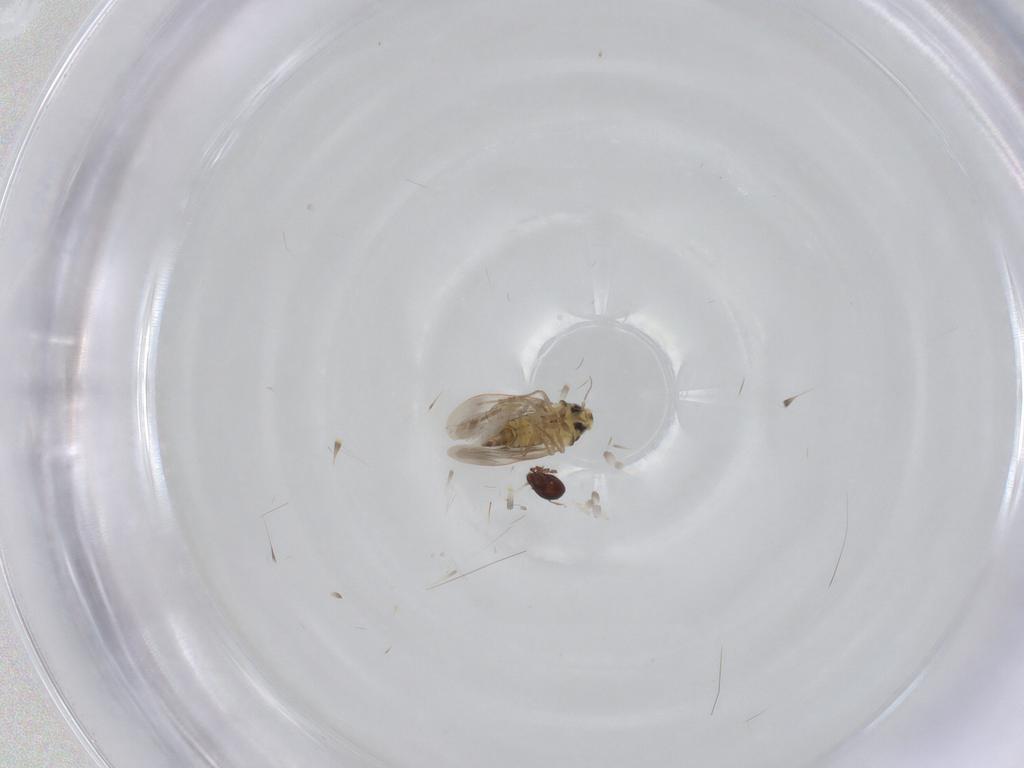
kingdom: Animalia
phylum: Arthropoda
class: Insecta
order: Hemiptera
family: Aleyrodidae
